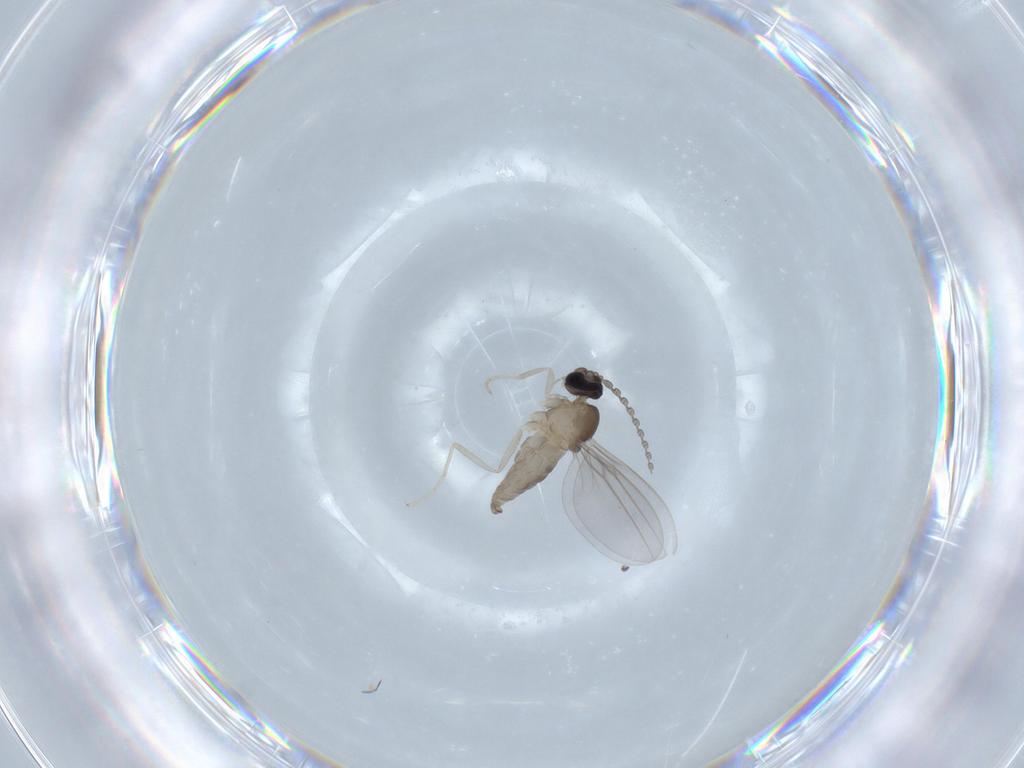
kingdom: Animalia
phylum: Arthropoda
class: Insecta
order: Diptera
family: Cecidomyiidae
